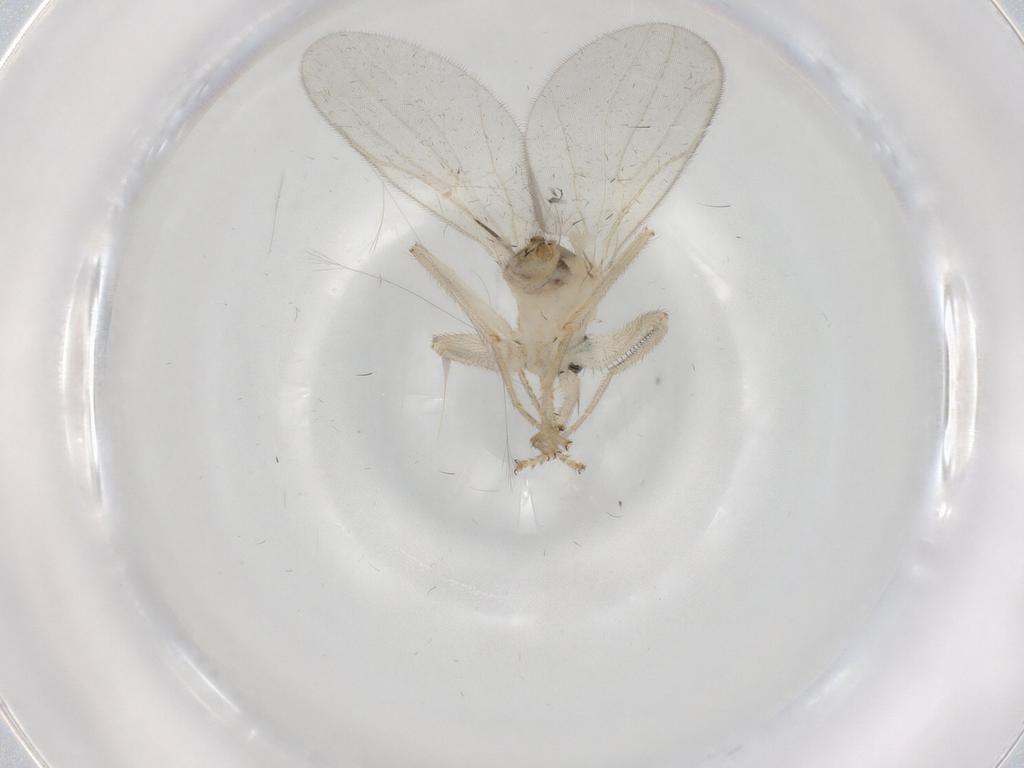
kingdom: Animalia
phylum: Arthropoda
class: Insecta
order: Diptera
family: Hybotidae
